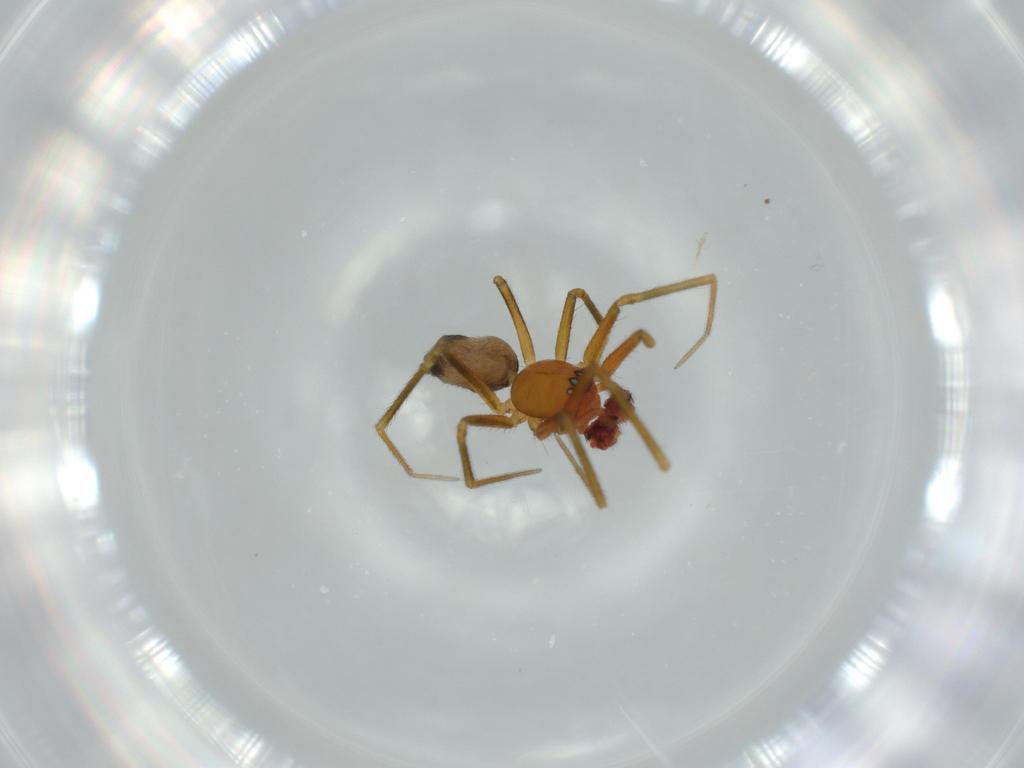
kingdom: Animalia
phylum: Arthropoda
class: Arachnida
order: Araneae
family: Linyphiidae
